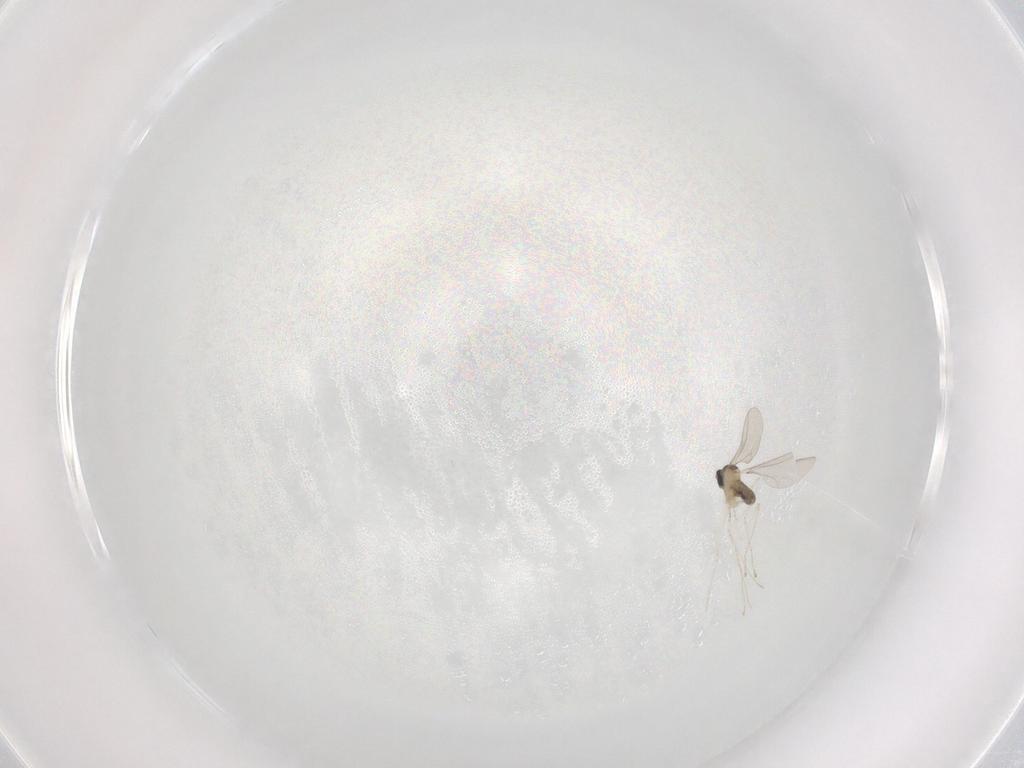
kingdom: Animalia
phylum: Arthropoda
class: Insecta
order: Diptera
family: Cecidomyiidae
